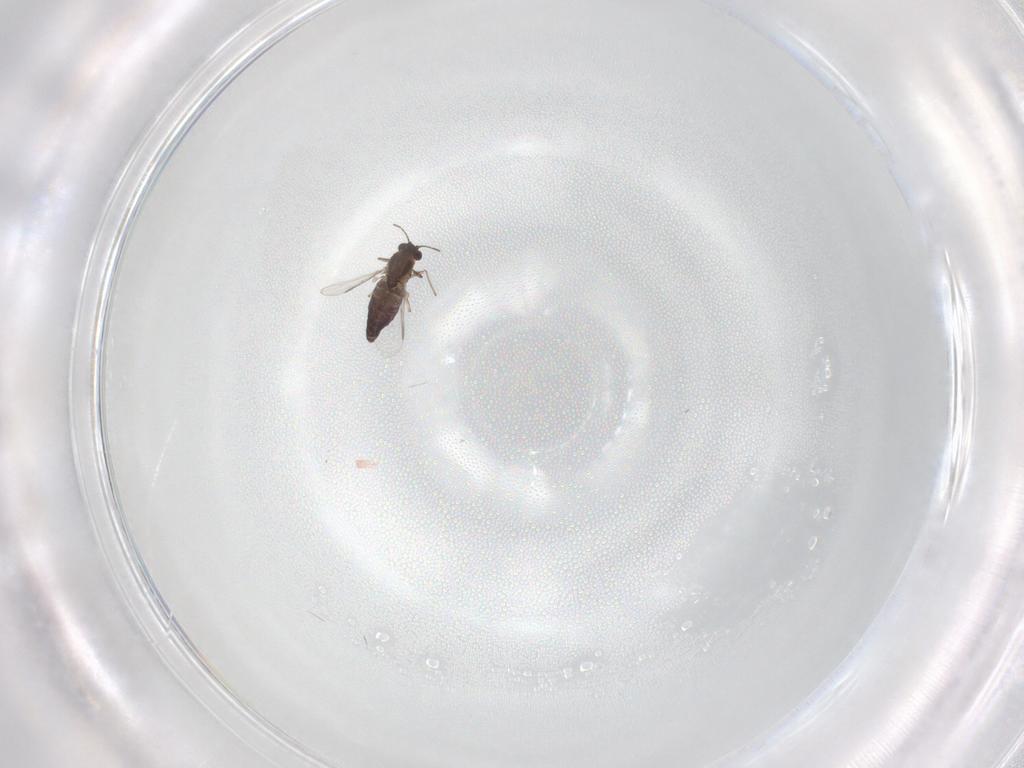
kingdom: Animalia
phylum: Arthropoda
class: Insecta
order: Diptera
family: Chironomidae
